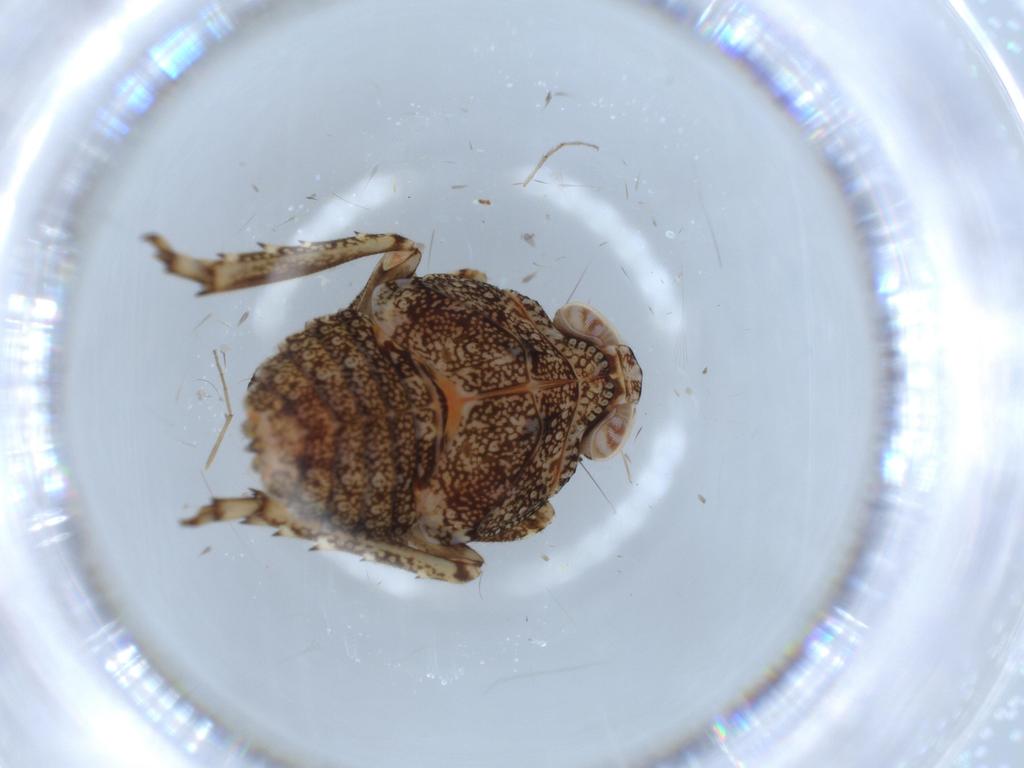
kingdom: Animalia
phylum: Arthropoda
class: Insecta
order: Hemiptera
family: Issidae
